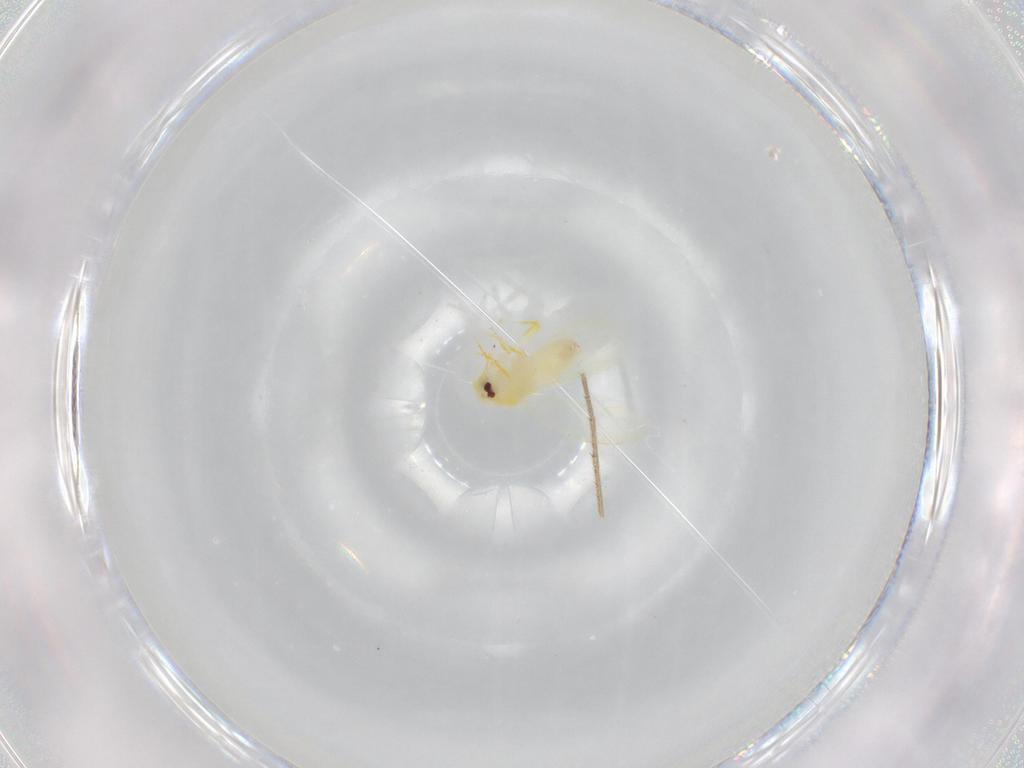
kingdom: Animalia
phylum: Arthropoda
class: Insecta
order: Hemiptera
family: Aleyrodidae
